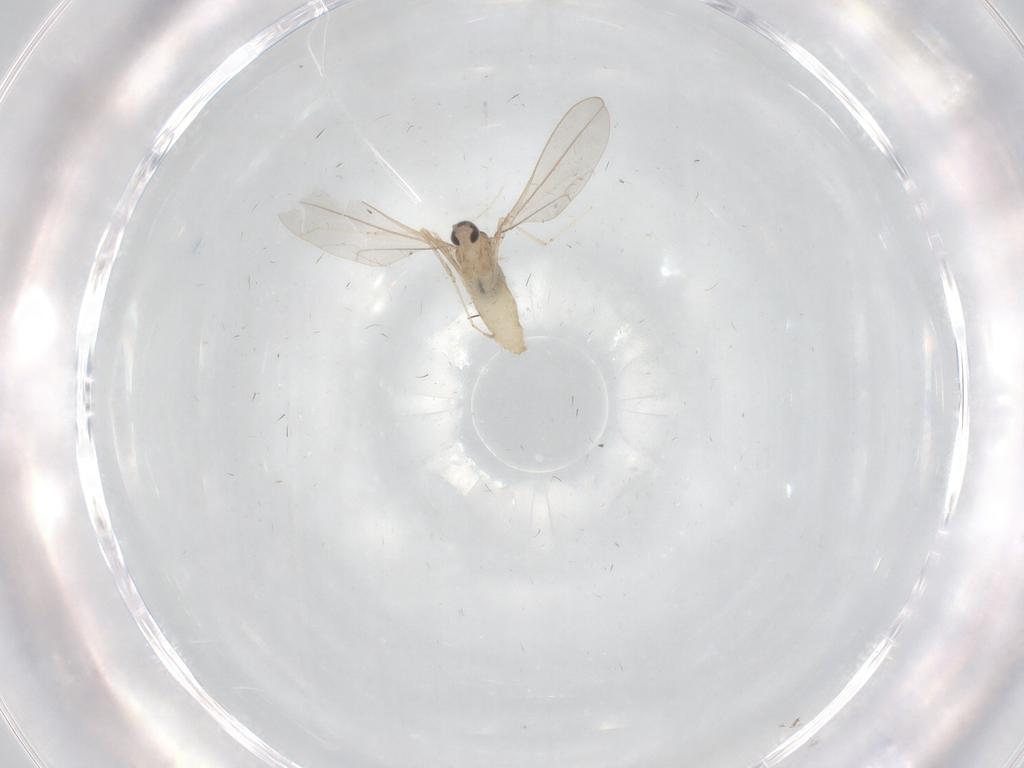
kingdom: Animalia
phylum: Arthropoda
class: Insecta
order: Diptera
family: Cecidomyiidae
